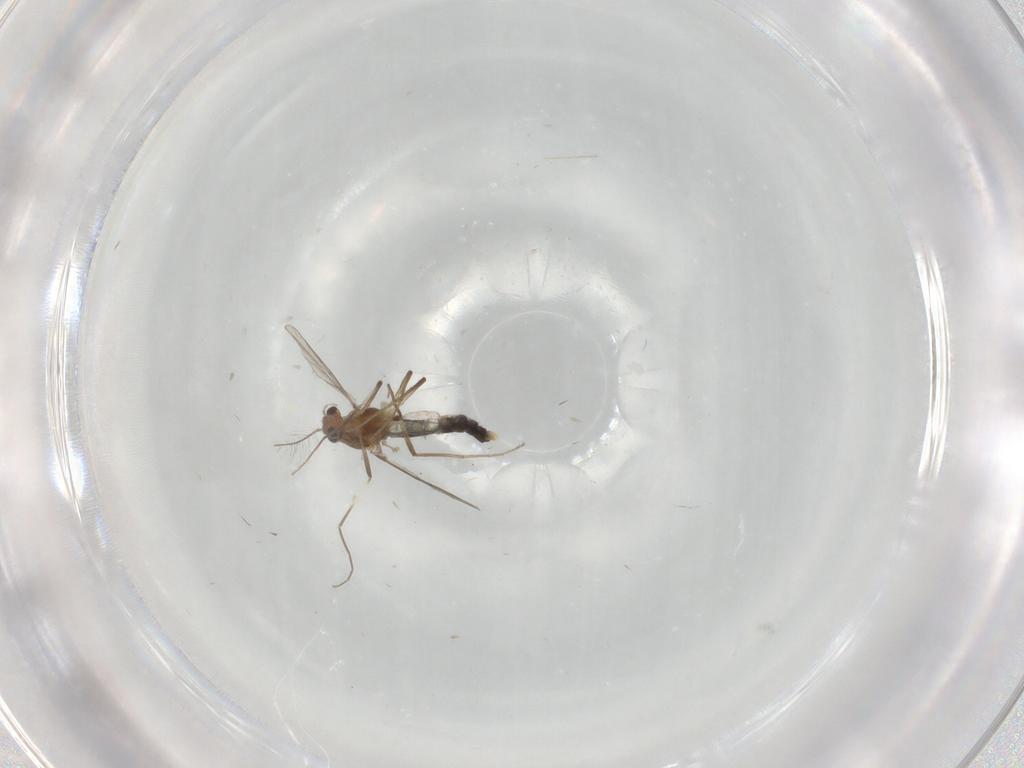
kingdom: Animalia
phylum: Arthropoda
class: Insecta
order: Diptera
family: Chironomidae
